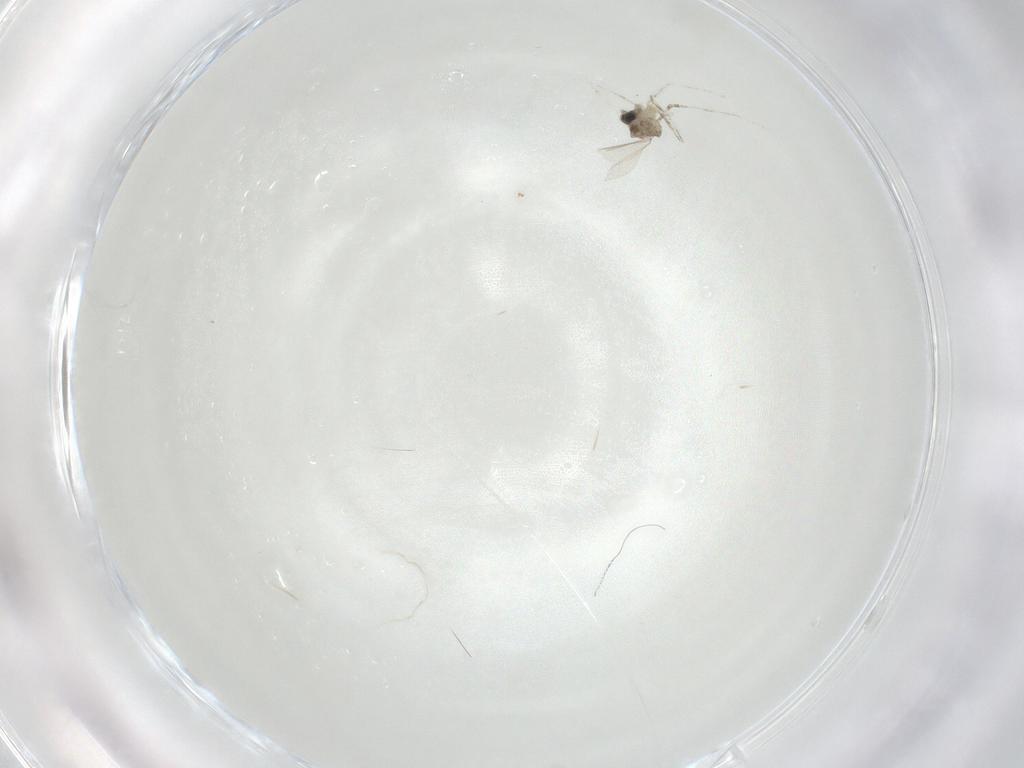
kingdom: Animalia
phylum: Arthropoda
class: Insecta
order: Diptera
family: Cecidomyiidae
